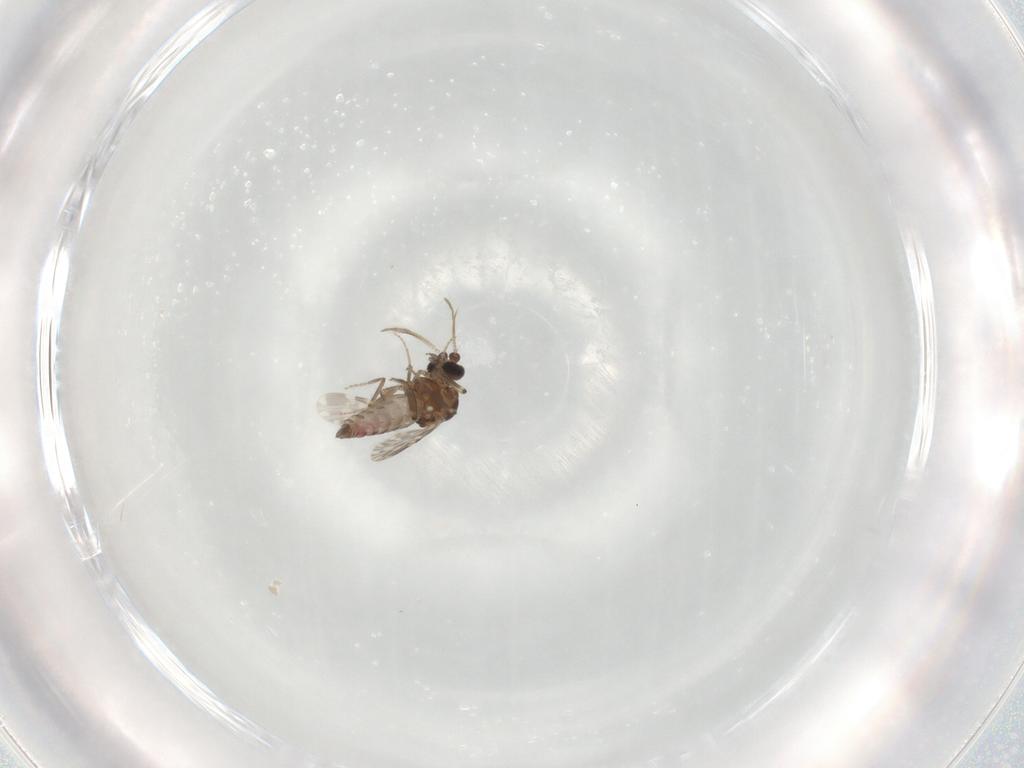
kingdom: Animalia
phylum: Arthropoda
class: Insecta
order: Diptera
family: Ceratopogonidae
